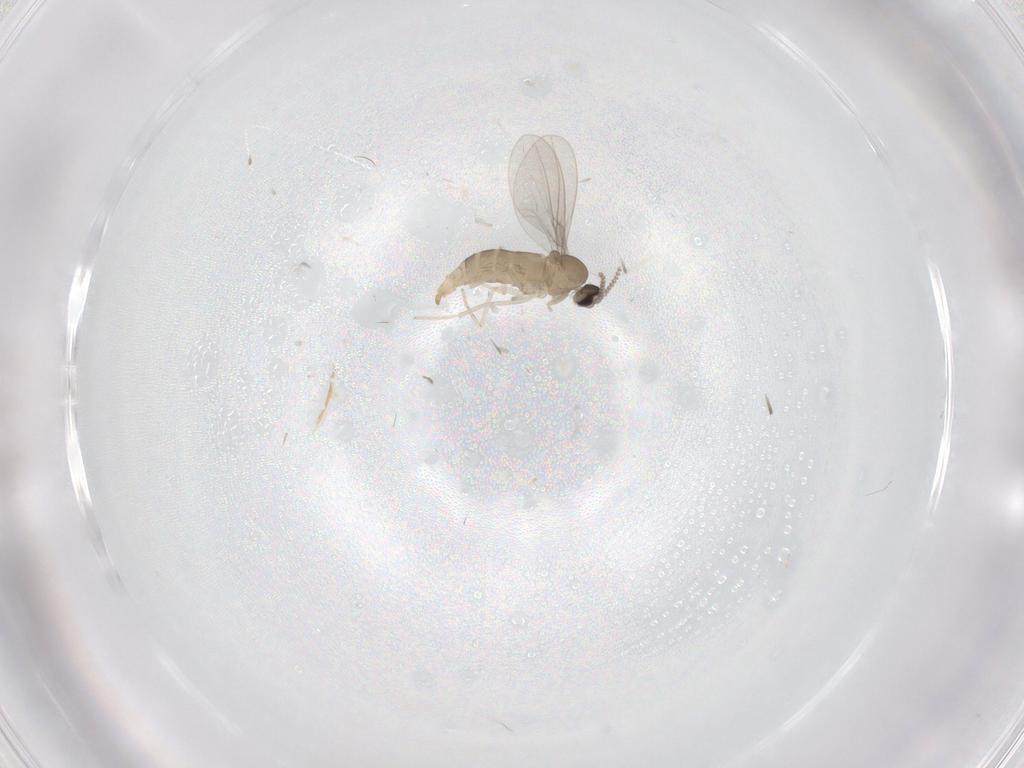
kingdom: Animalia
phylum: Arthropoda
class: Insecta
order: Diptera
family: Cecidomyiidae
